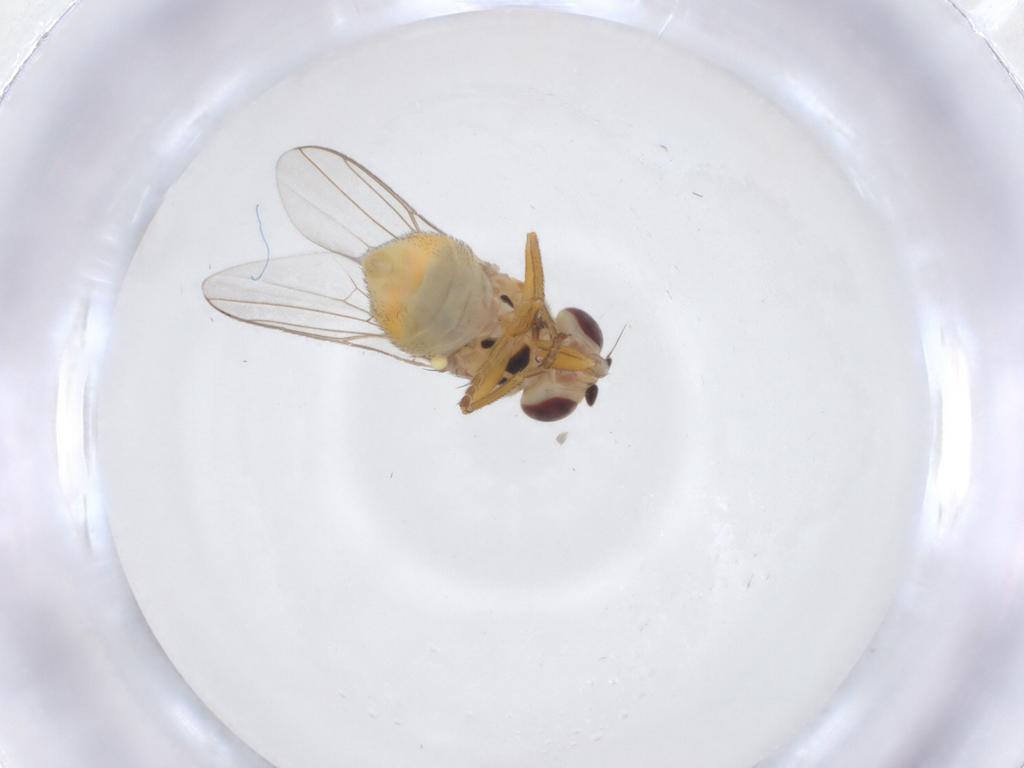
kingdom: Animalia
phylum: Arthropoda
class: Insecta
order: Diptera
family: Chloropidae
